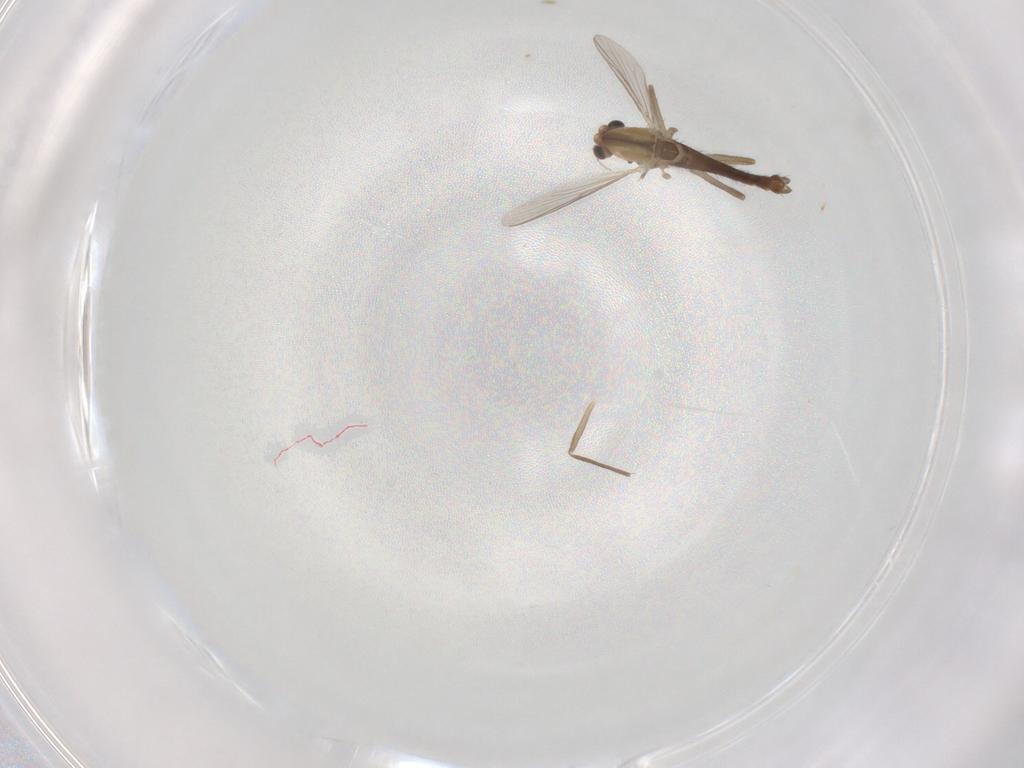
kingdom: Animalia
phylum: Arthropoda
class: Insecta
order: Diptera
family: Chironomidae
